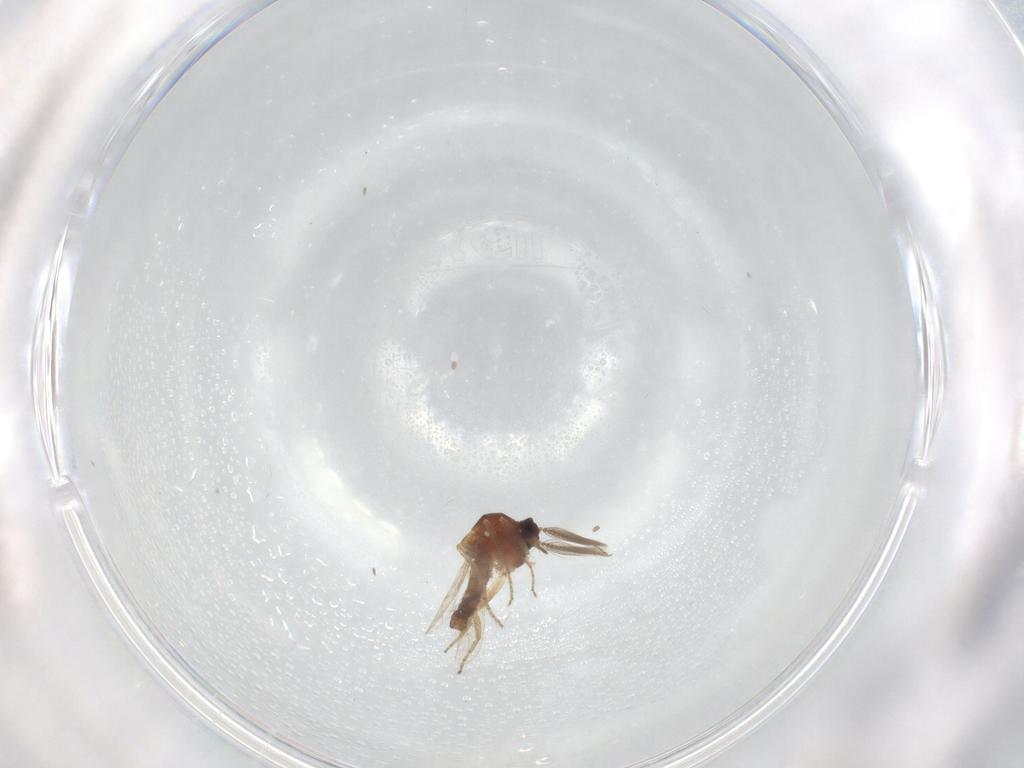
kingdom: Animalia
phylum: Arthropoda
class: Insecta
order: Diptera
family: Ceratopogonidae
